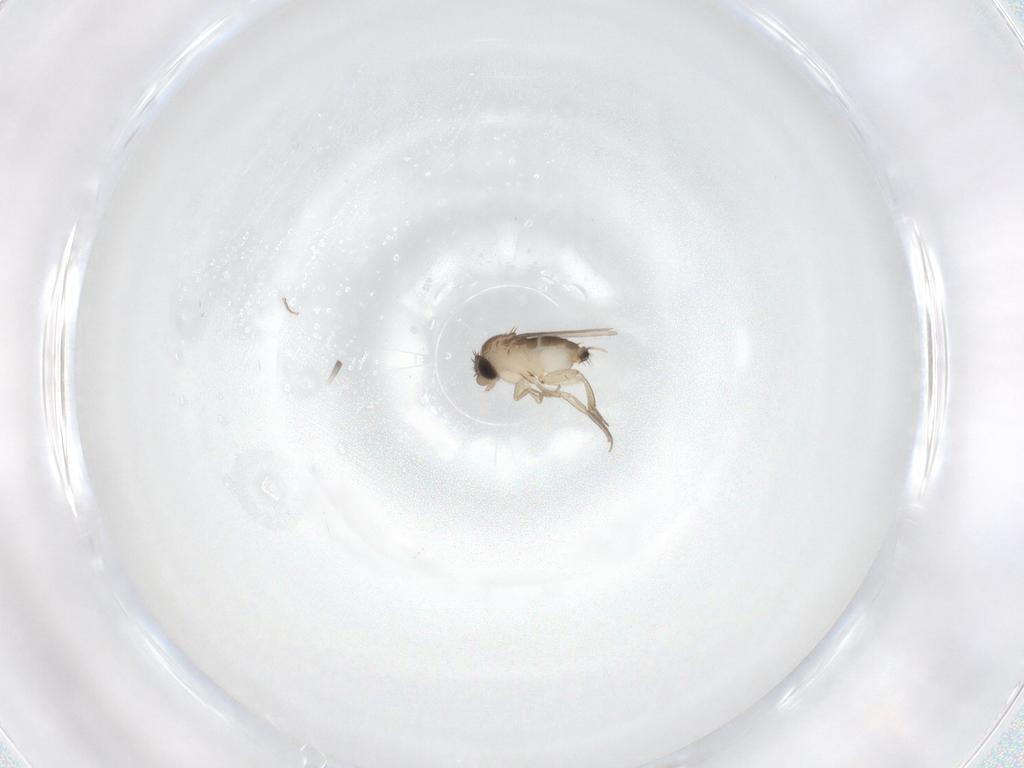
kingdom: Animalia
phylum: Arthropoda
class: Insecta
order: Diptera
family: Phoridae
